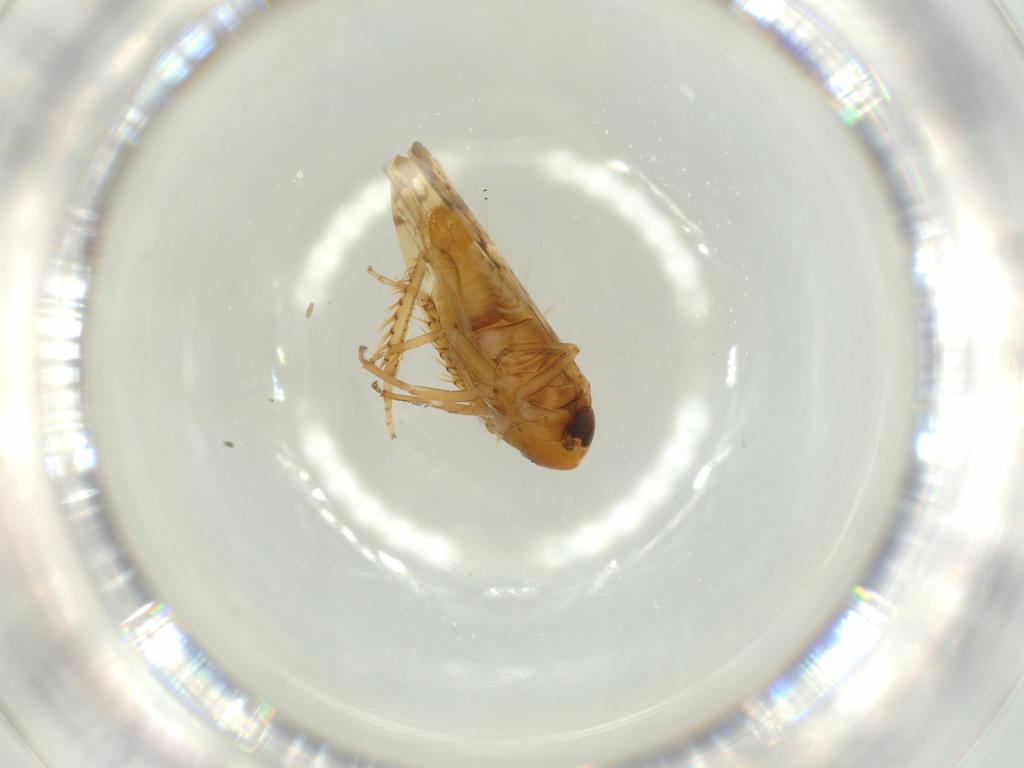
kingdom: Animalia
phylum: Arthropoda
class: Insecta
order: Hemiptera
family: Cicadellidae
